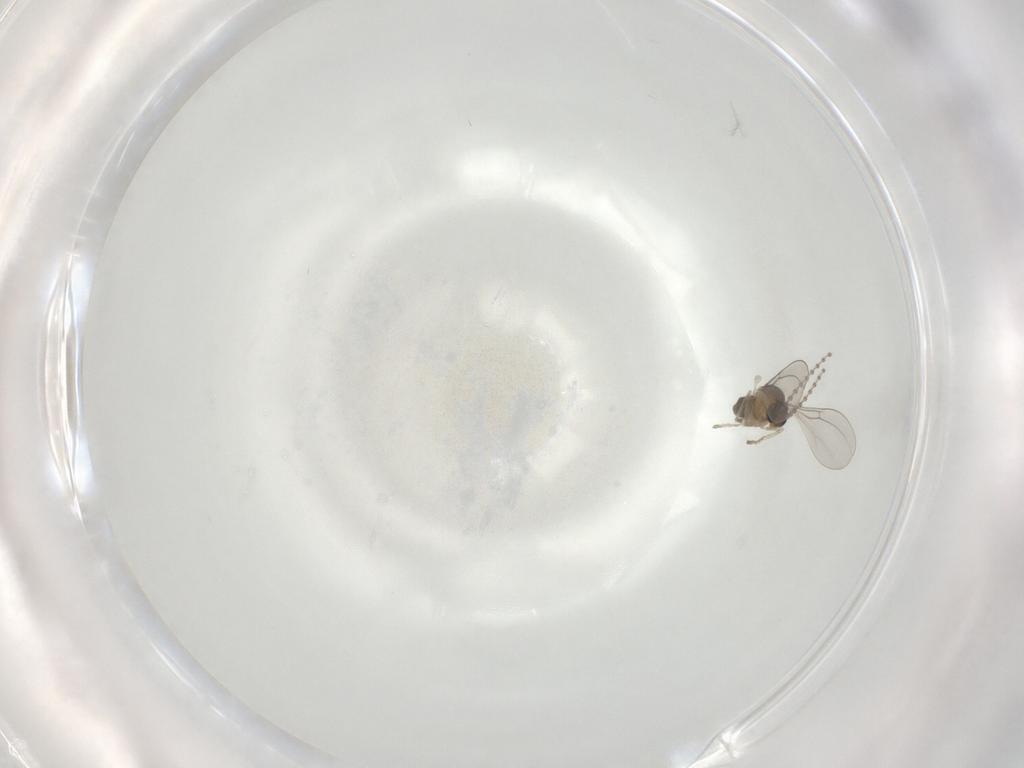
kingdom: Animalia
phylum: Arthropoda
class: Insecta
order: Diptera
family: Cecidomyiidae
